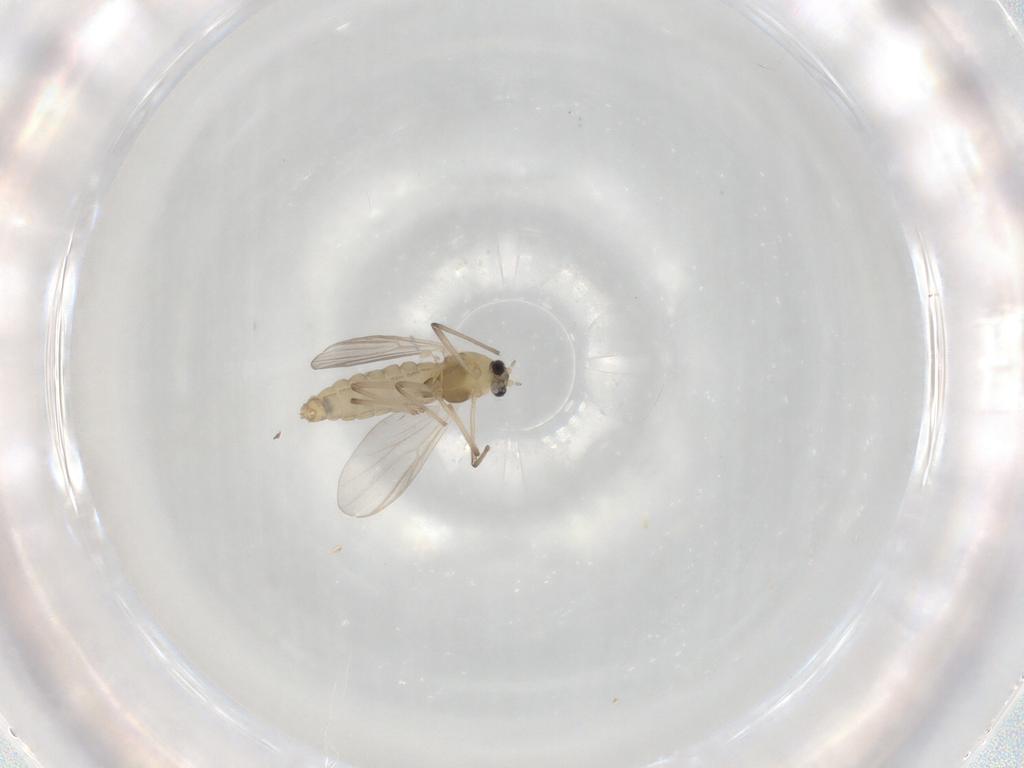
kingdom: Animalia
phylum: Arthropoda
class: Insecta
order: Diptera
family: Chironomidae
